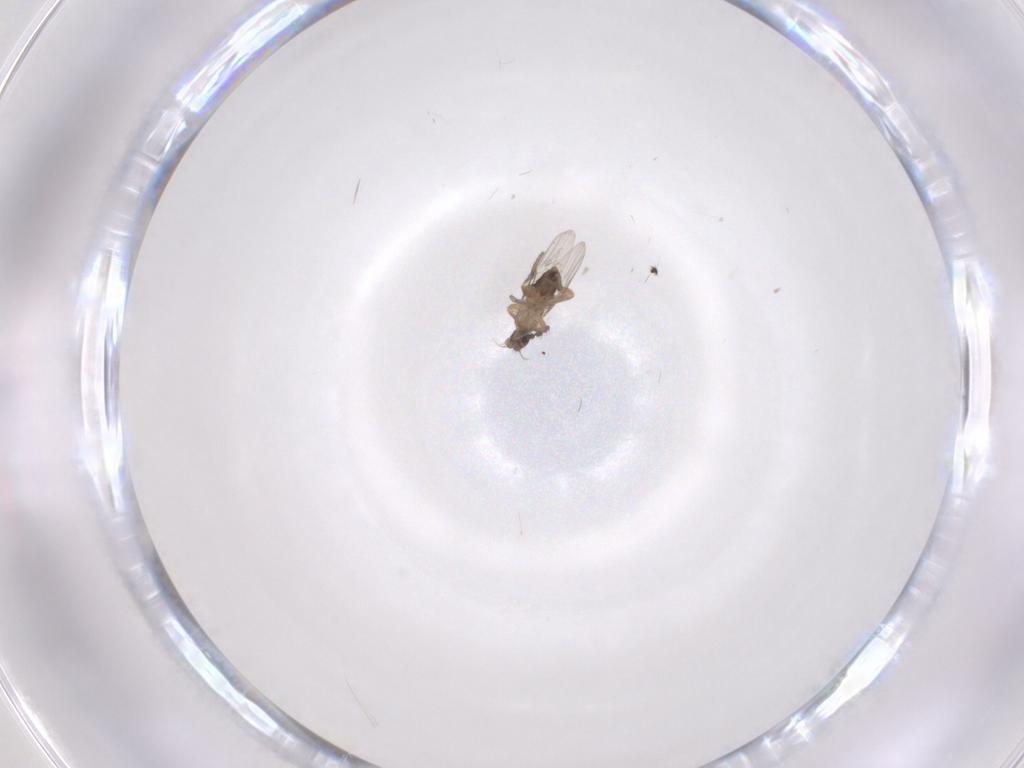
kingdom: Animalia
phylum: Arthropoda
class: Insecta
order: Diptera
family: Phoridae
